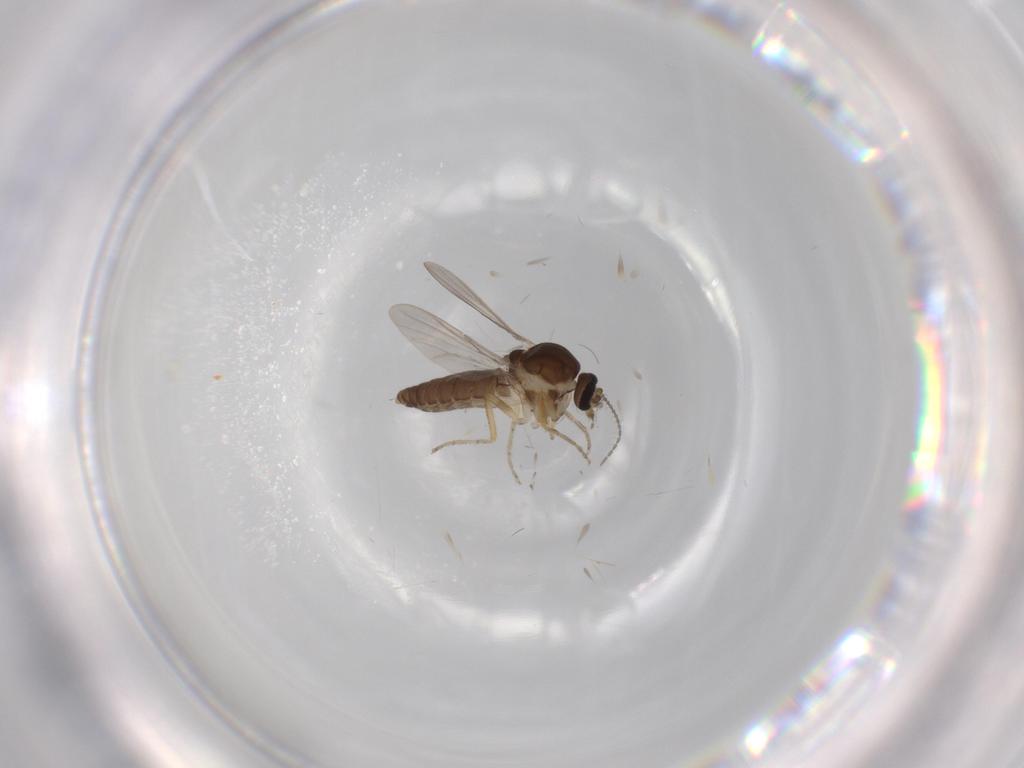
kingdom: Animalia
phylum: Arthropoda
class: Insecta
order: Diptera
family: Ceratopogonidae
